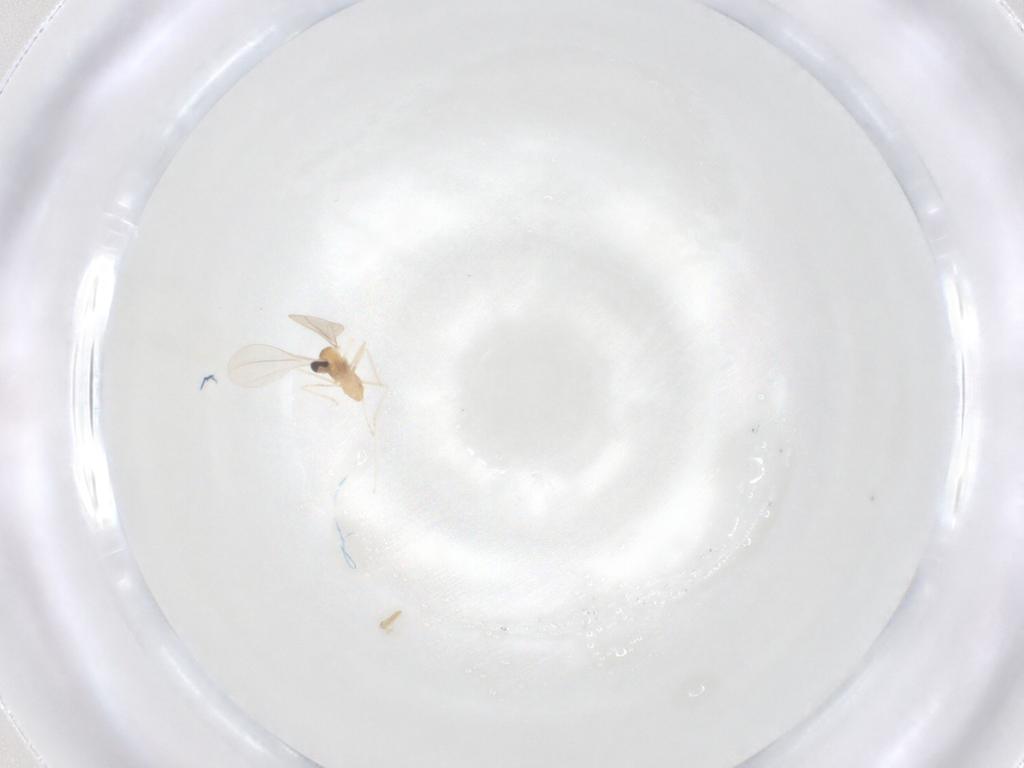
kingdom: Animalia
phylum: Arthropoda
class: Insecta
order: Diptera
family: Cecidomyiidae
